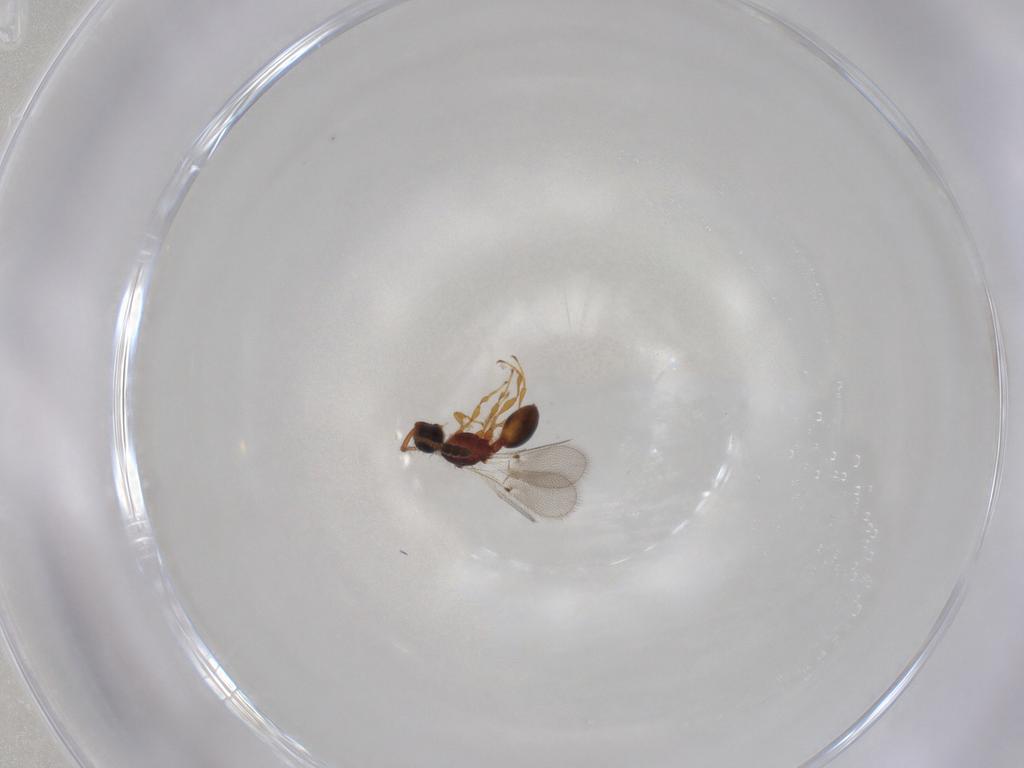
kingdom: Animalia
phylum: Arthropoda
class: Insecta
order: Hymenoptera
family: Diapriidae
